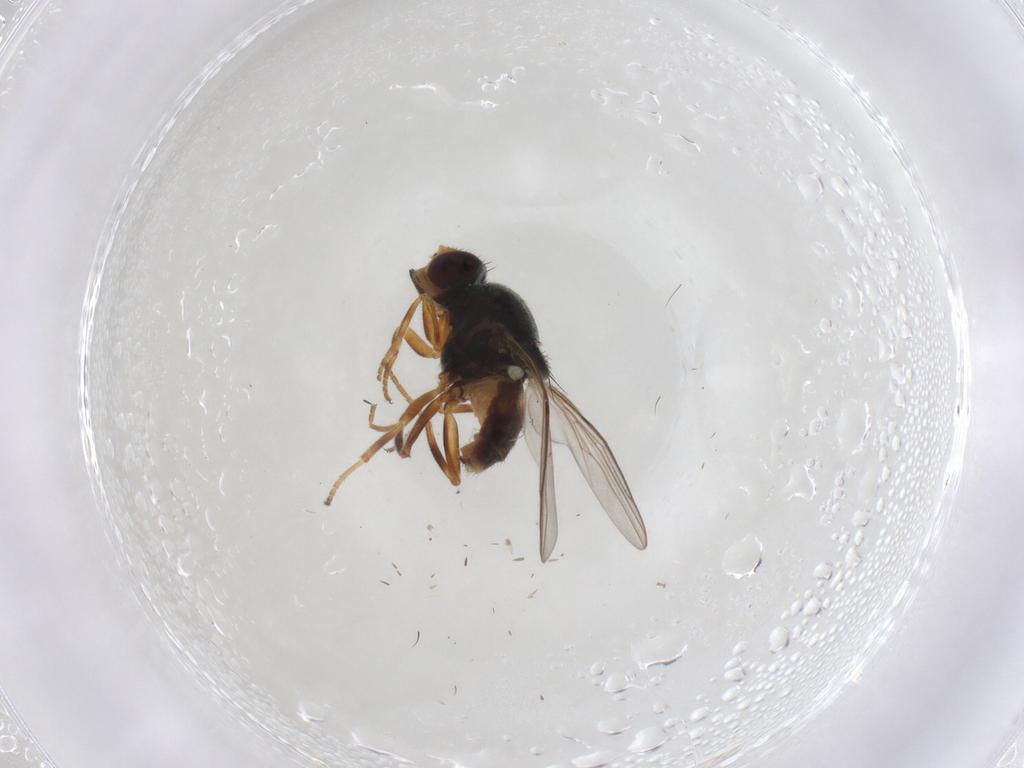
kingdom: Animalia
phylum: Arthropoda
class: Insecta
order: Diptera
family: Chloropidae
